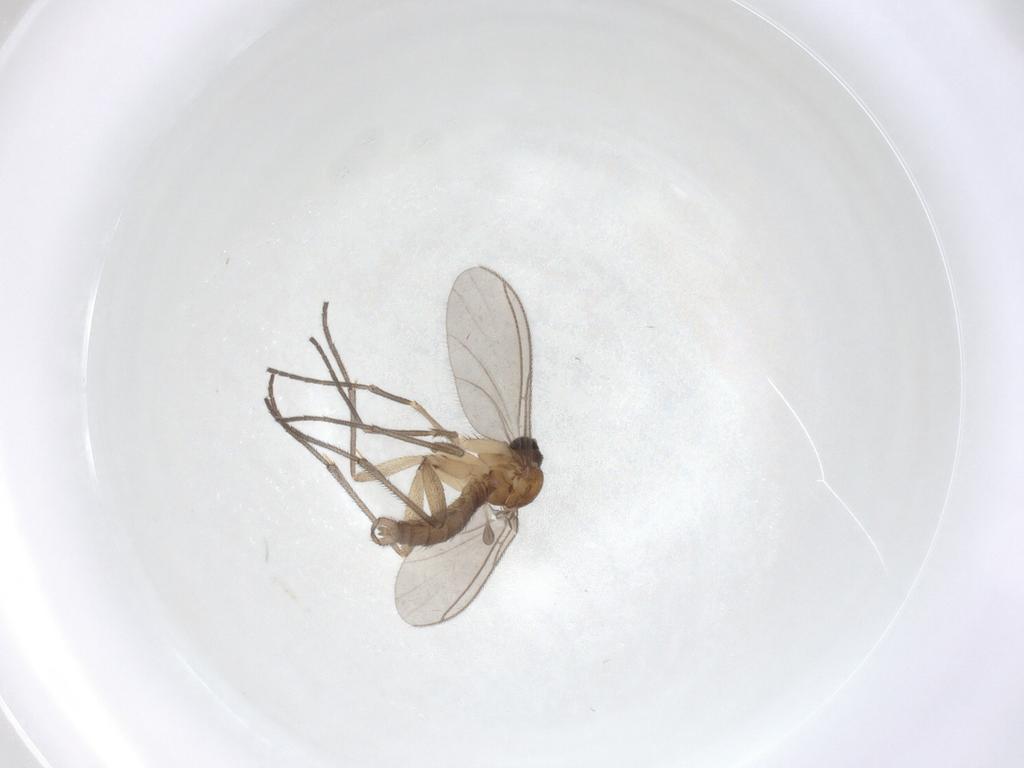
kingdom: Animalia
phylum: Arthropoda
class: Insecta
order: Diptera
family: Sciaridae
